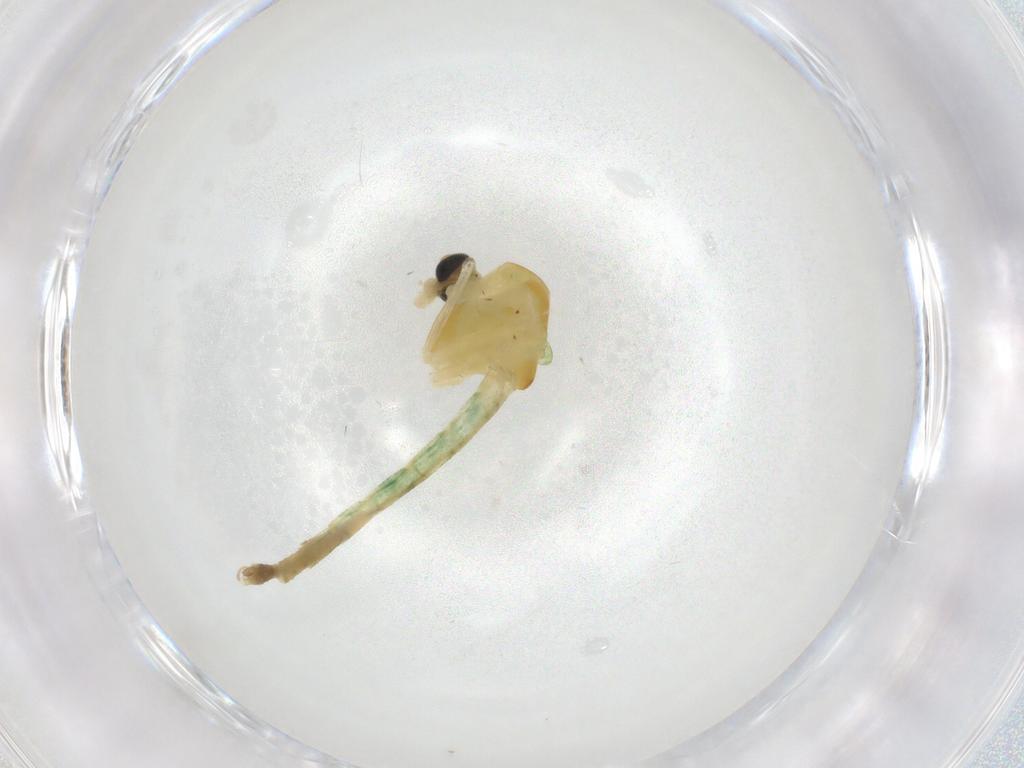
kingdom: Animalia
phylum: Arthropoda
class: Insecta
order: Diptera
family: Chironomidae
